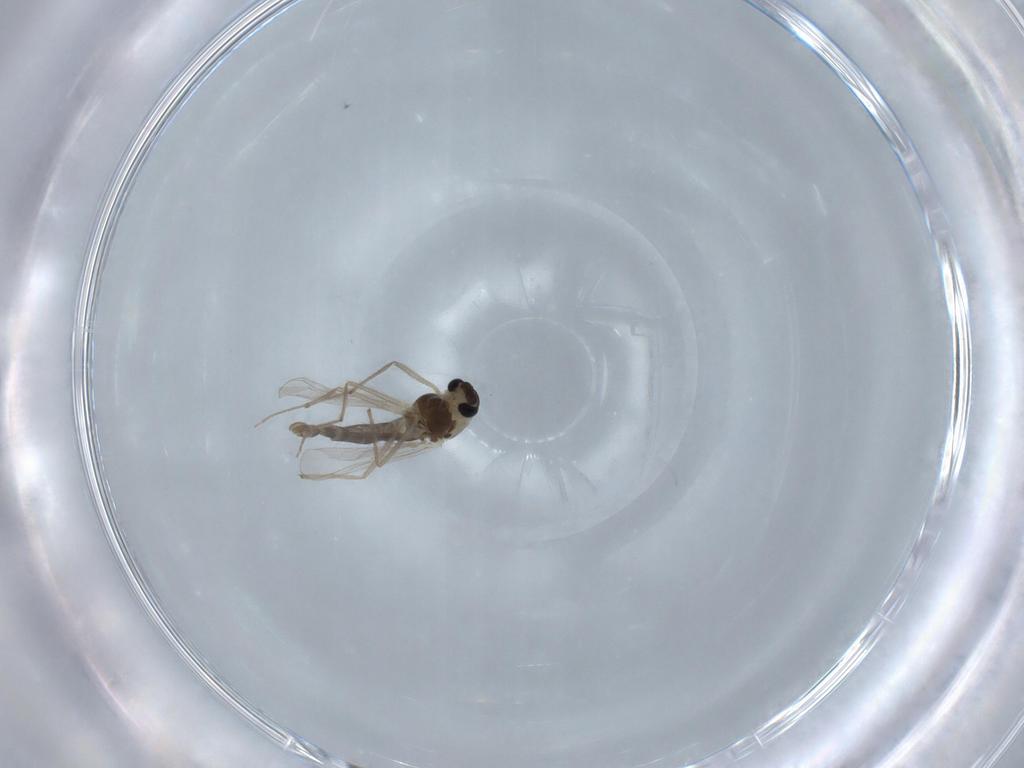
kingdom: Animalia
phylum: Arthropoda
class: Insecta
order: Diptera
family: Chironomidae
